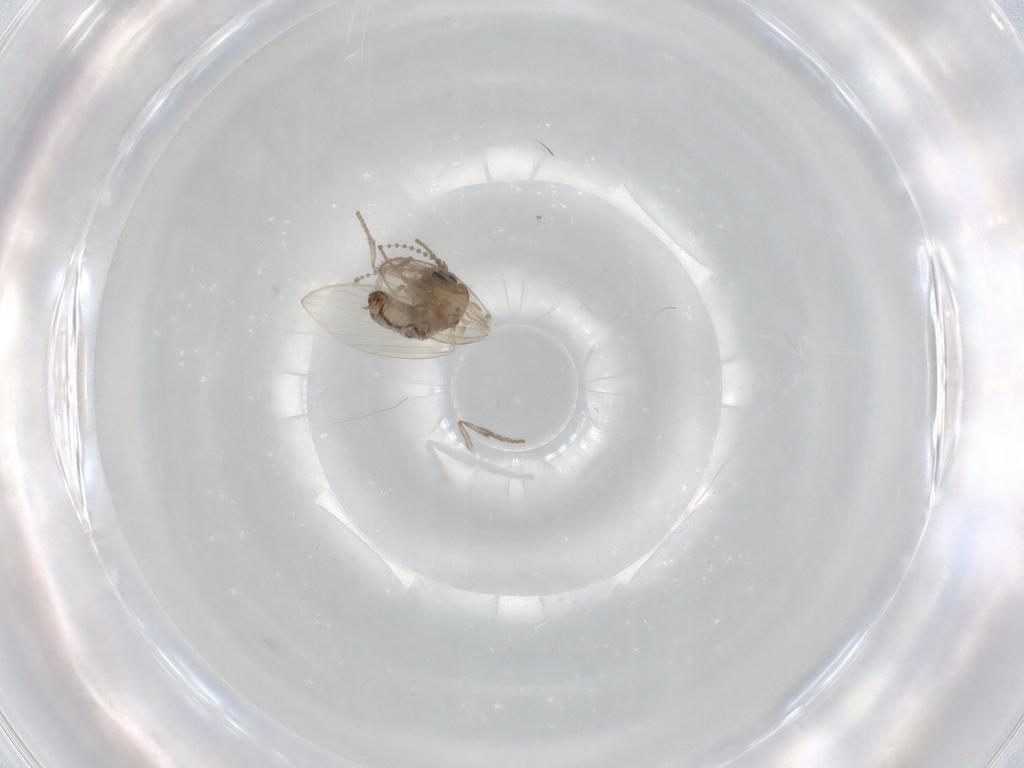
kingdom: Animalia
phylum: Arthropoda
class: Insecta
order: Diptera
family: Psychodidae
